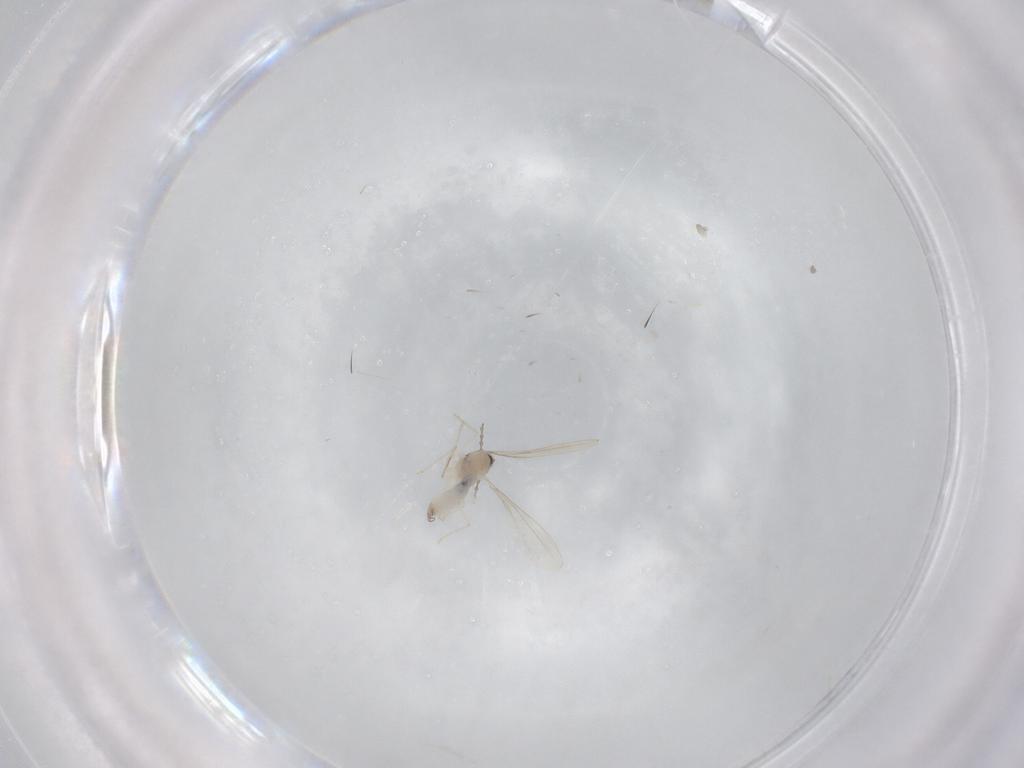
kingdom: Animalia
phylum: Arthropoda
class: Insecta
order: Diptera
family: Cecidomyiidae
